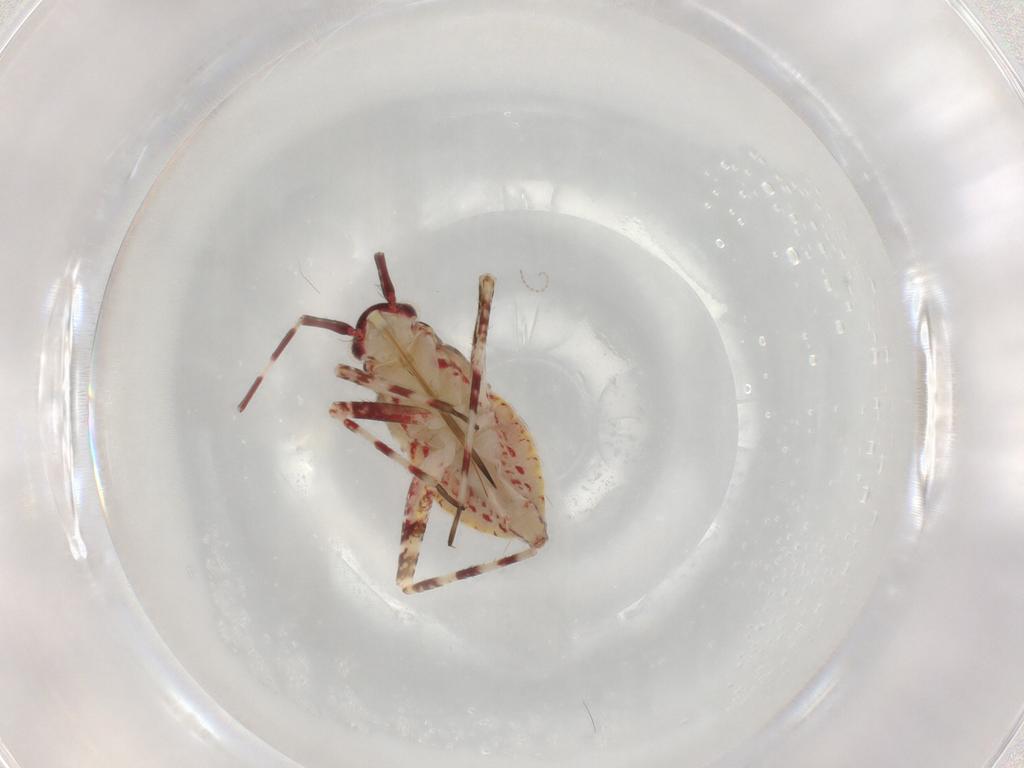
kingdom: Animalia
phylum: Arthropoda
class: Insecta
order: Hemiptera
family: Miridae
